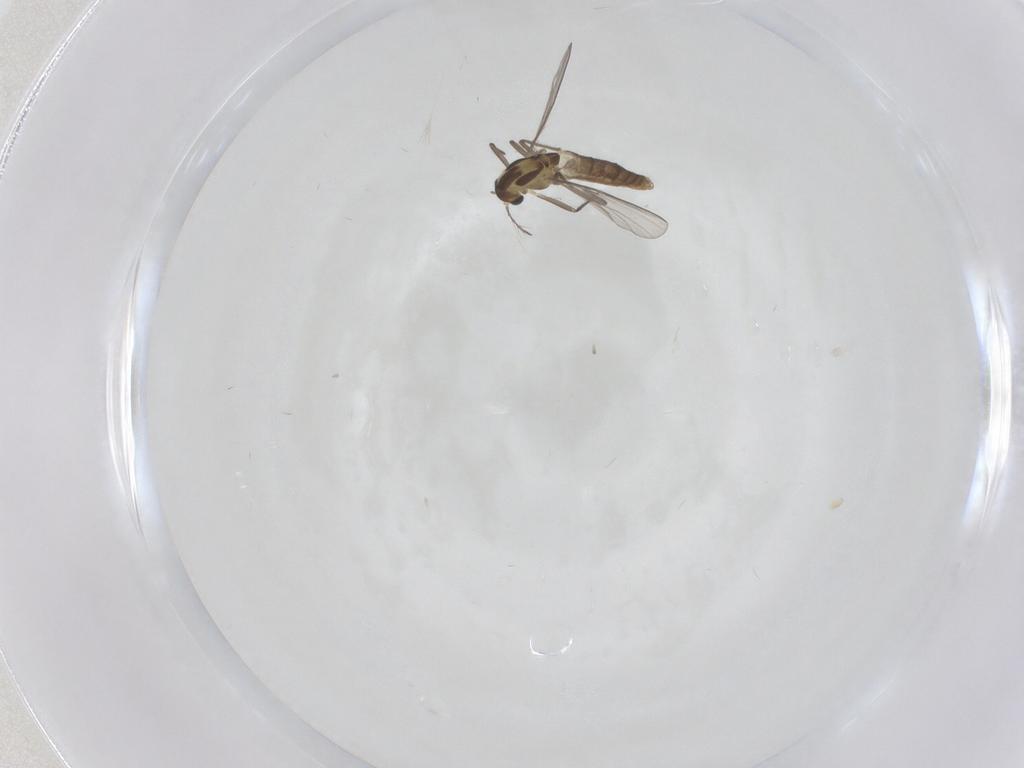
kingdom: Animalia
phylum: Arthropoda
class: Insecta
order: Diptera
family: Chironomidae
